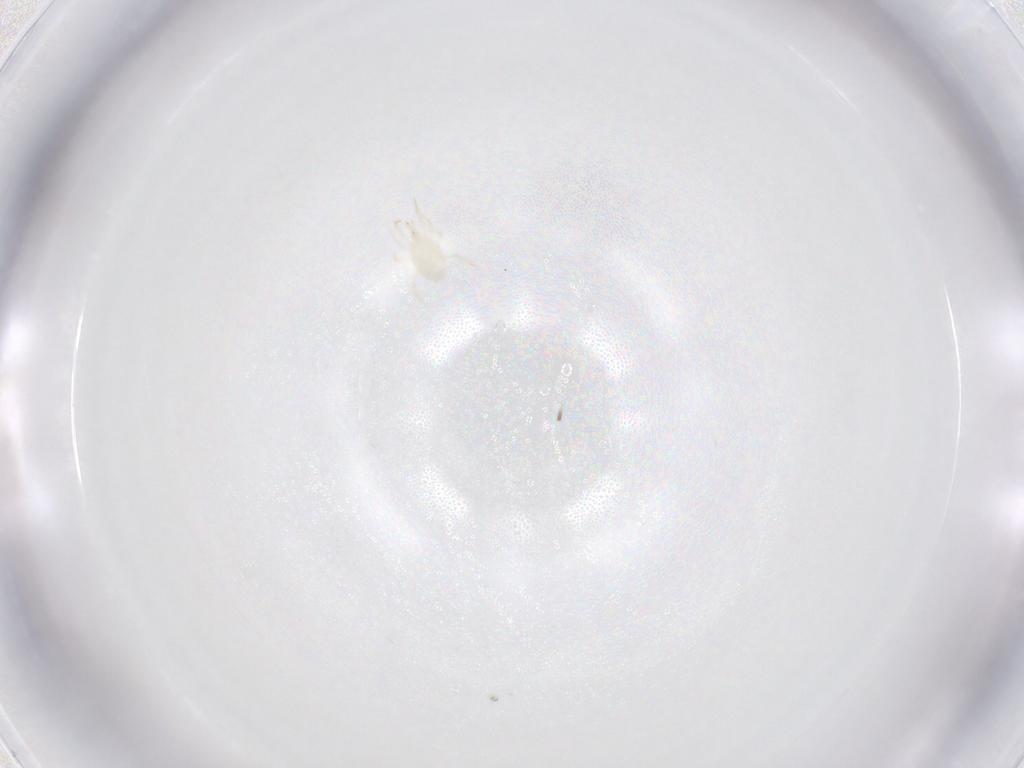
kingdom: Animalia
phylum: Arthropoda
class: Arachnida
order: Mesostigmata
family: Phytoseiidae
